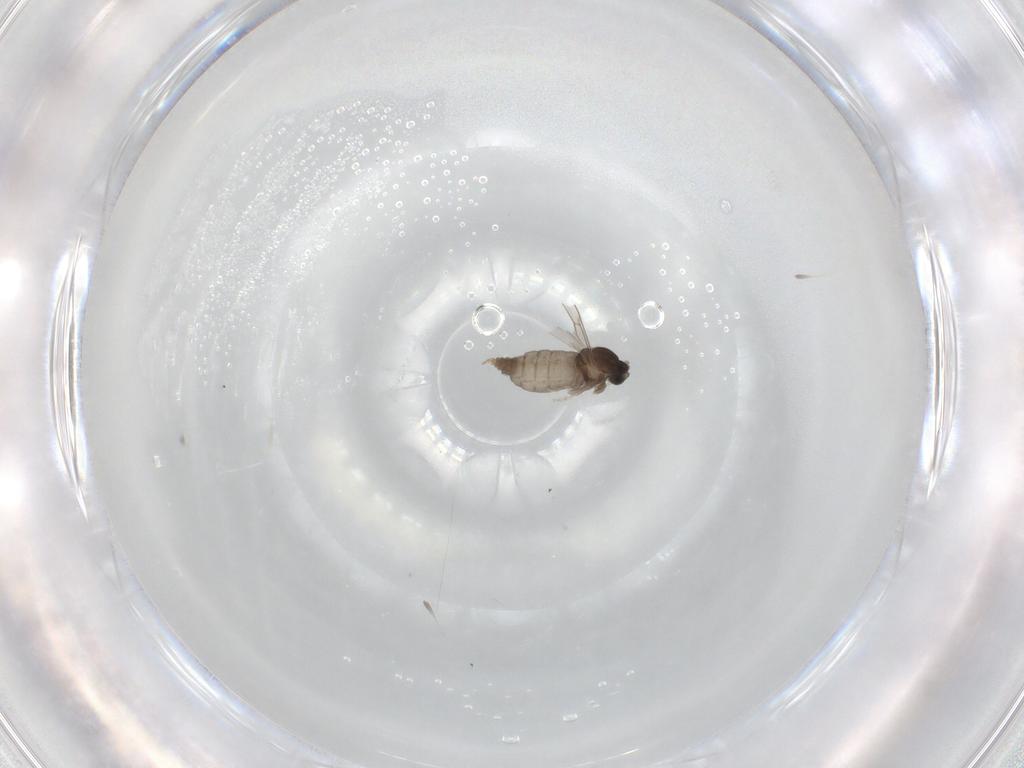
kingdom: Animalia
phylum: Arthropoda
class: Insecta
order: Diptera
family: Cecidomyiidae
